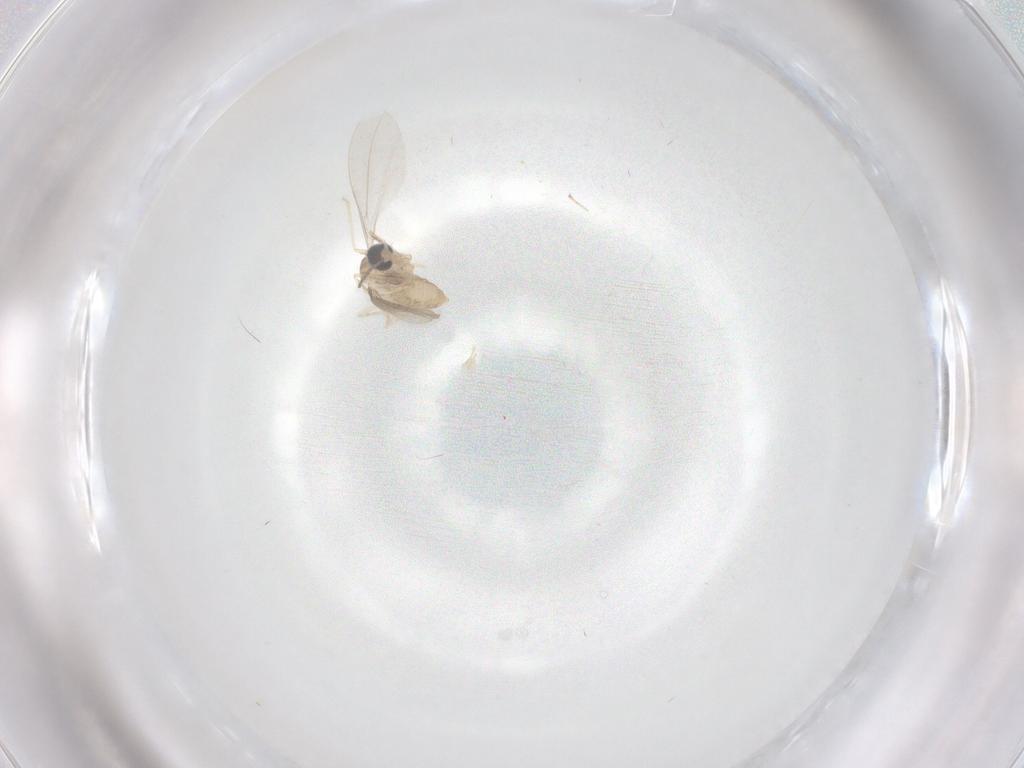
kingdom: Animalia
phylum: Arthropoda
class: Insecta
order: Diptera
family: Cecidomyiidae
